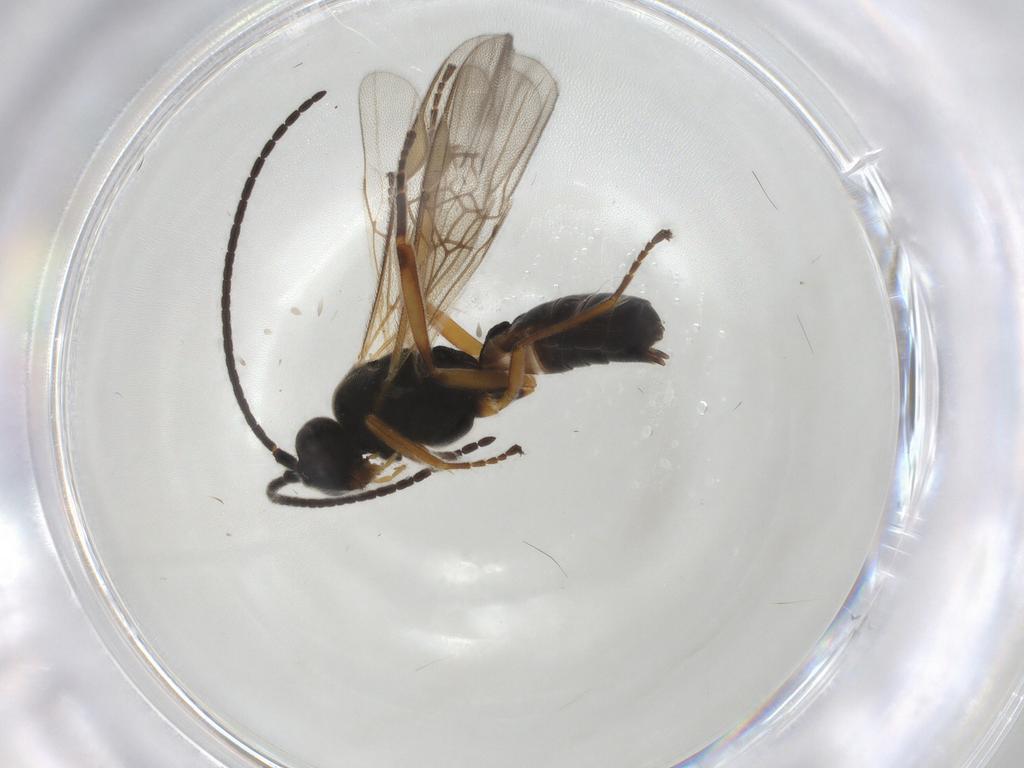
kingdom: Animalia
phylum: Arthropoda
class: Insecta
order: Hymenoptera
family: Braconidae
